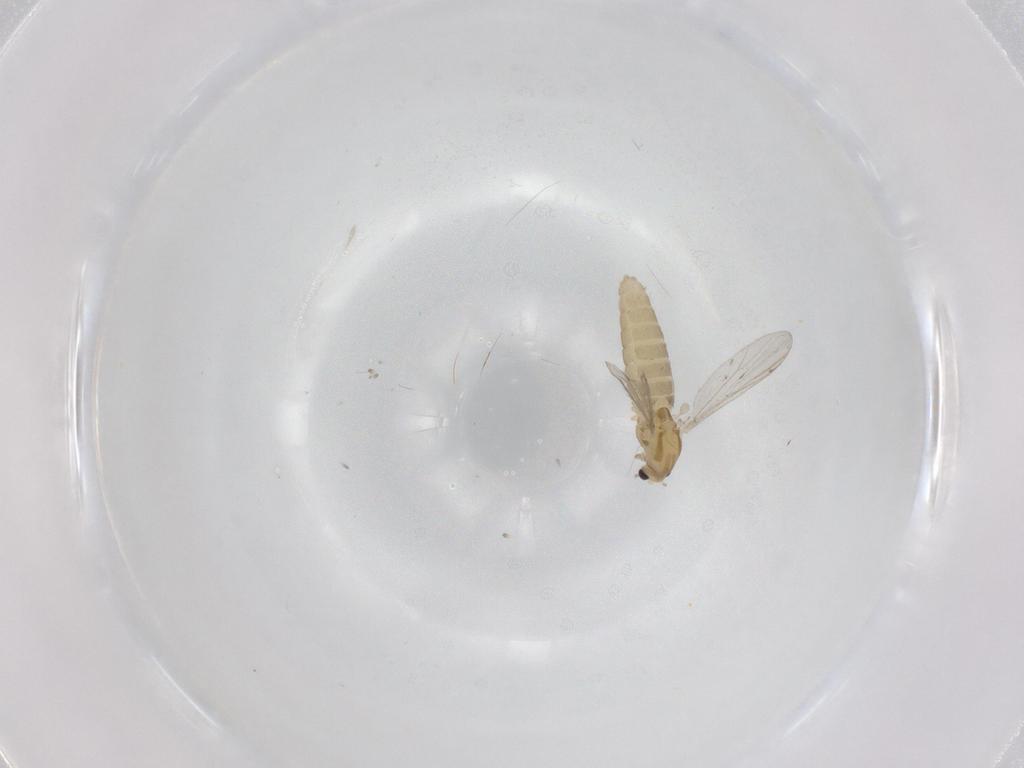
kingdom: Animalia
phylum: Arthropoda
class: Insecta
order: Diptera
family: Chironomidae
